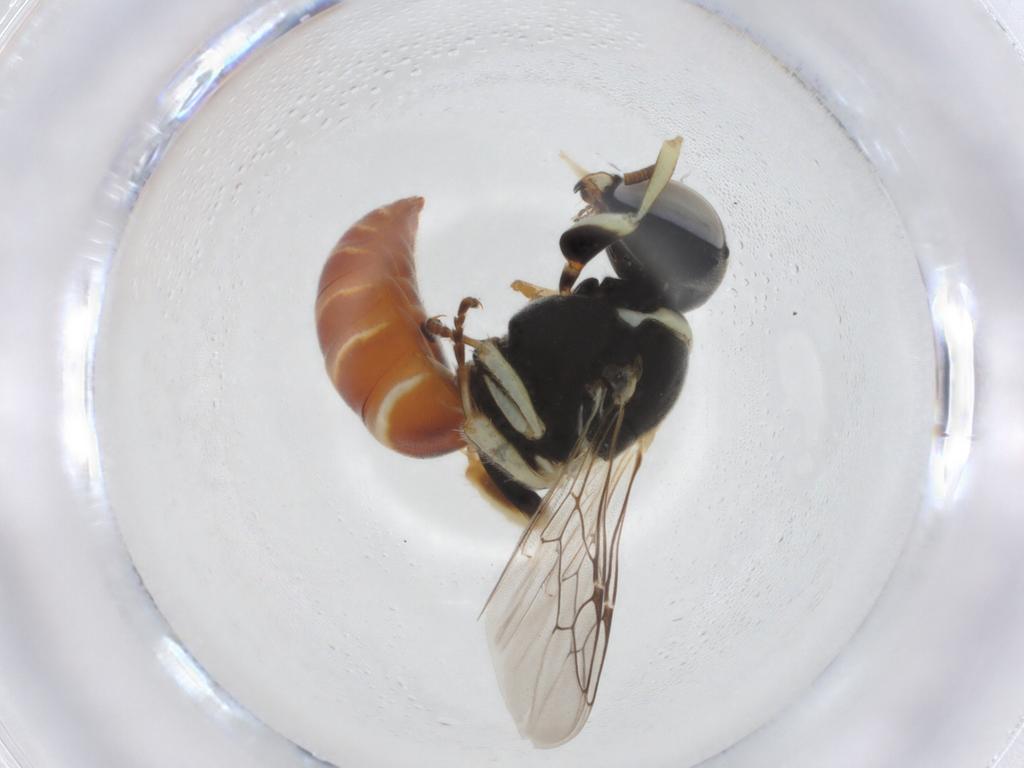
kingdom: Animalia
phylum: Arthropoda
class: Insecta
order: Hymenoptera
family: Crabronidae
